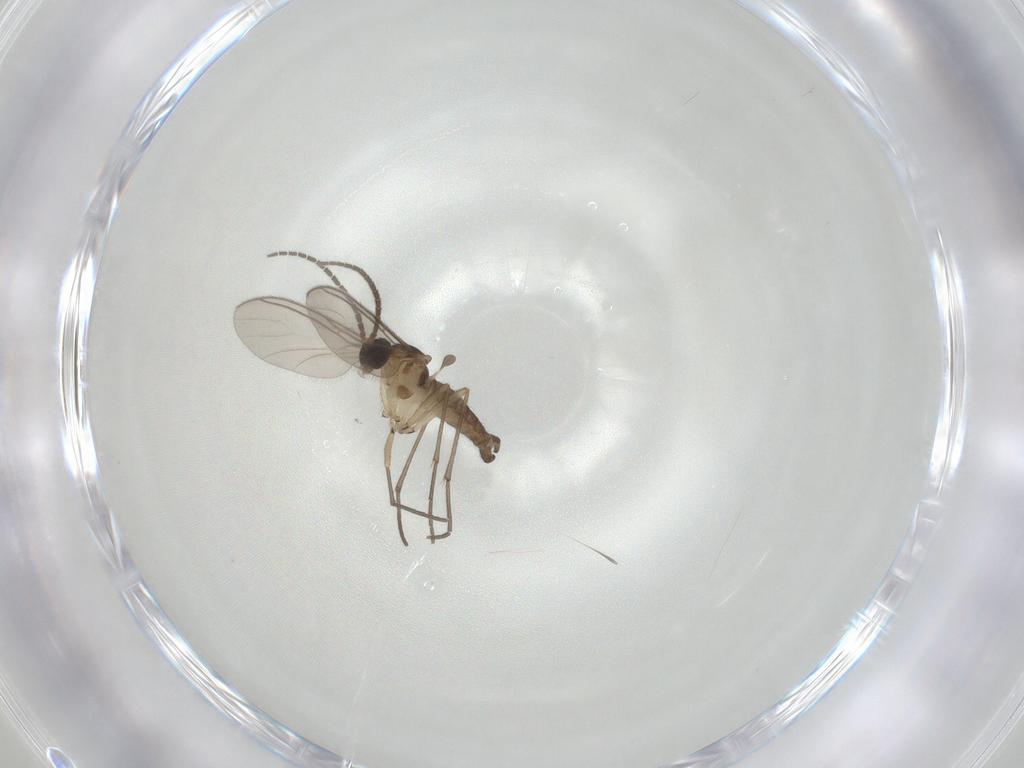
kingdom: Animalia
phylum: Arthropoda
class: Insecta
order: Diptera
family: Sciaridae
